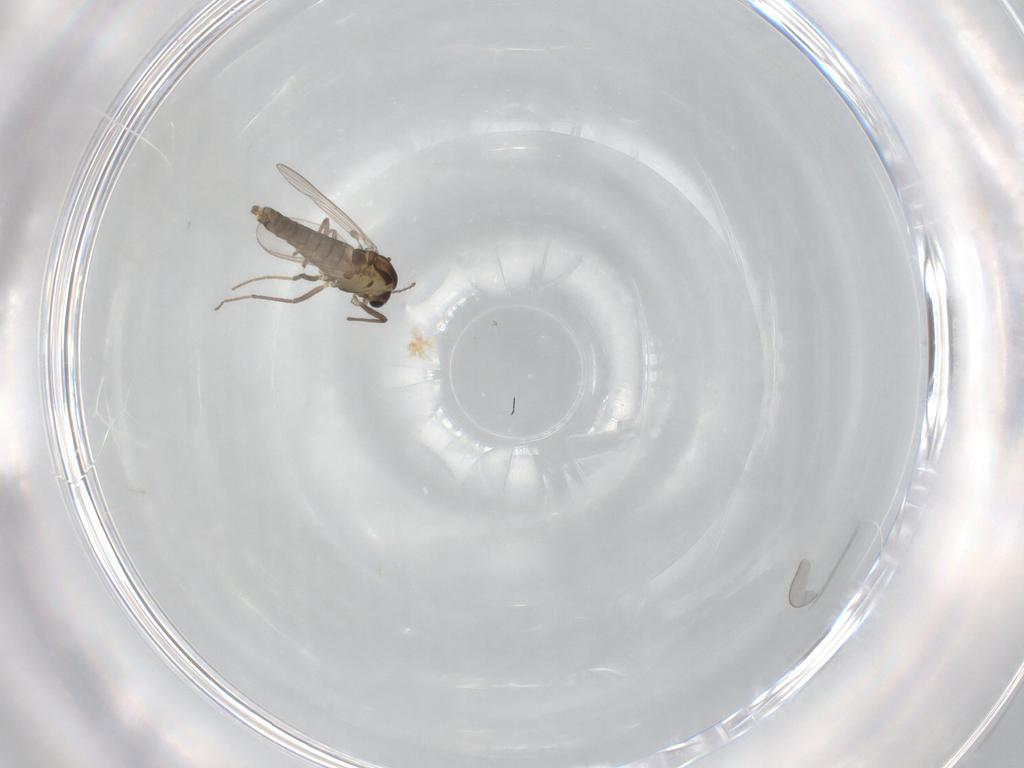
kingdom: Animalia
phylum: Arthropoda
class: Insecta
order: Diptera
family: Chironomidae
